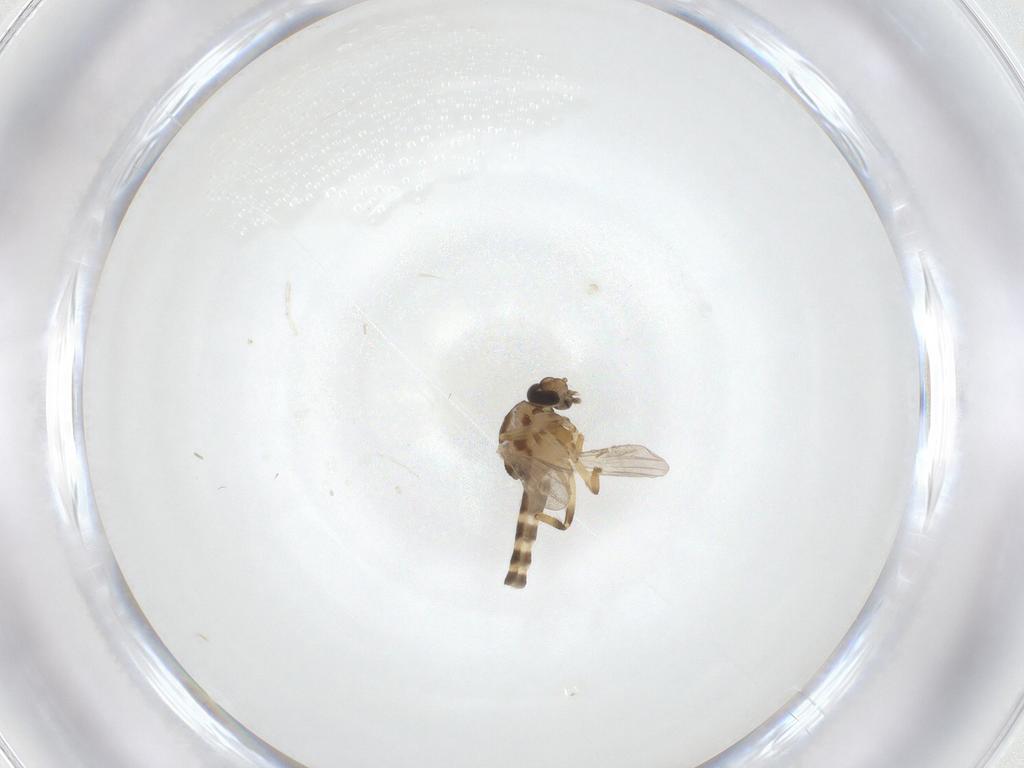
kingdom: Animalia
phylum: Arthropoda
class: Insecta
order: Diptera
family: Ceratopogonidae
